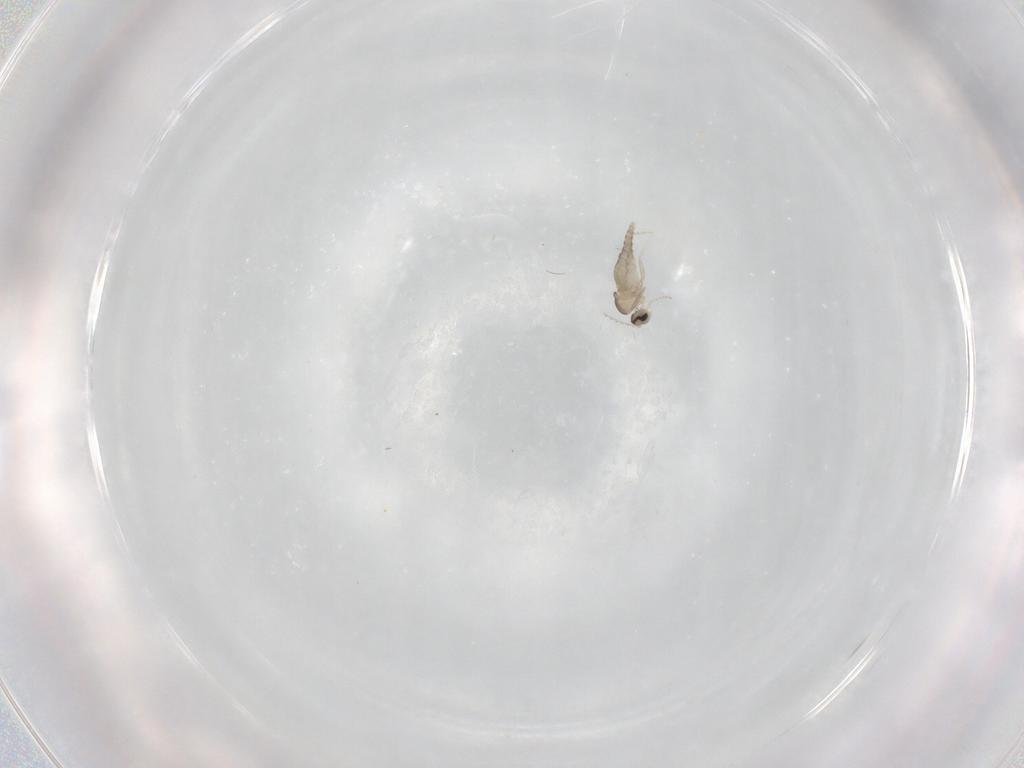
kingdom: Animalia
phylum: Arthropoda
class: Insecta
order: Diptera
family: Cecidomyiidae
